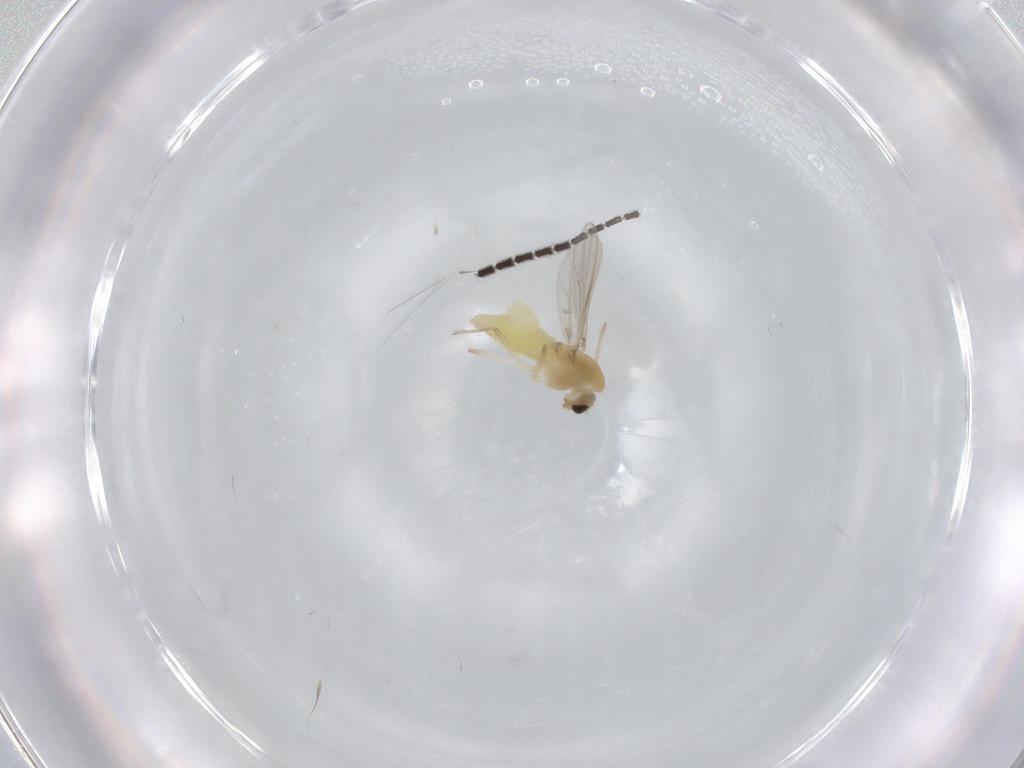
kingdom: Animalia
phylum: Arthropoda
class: Insecta
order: Diptera
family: Chironomidae
